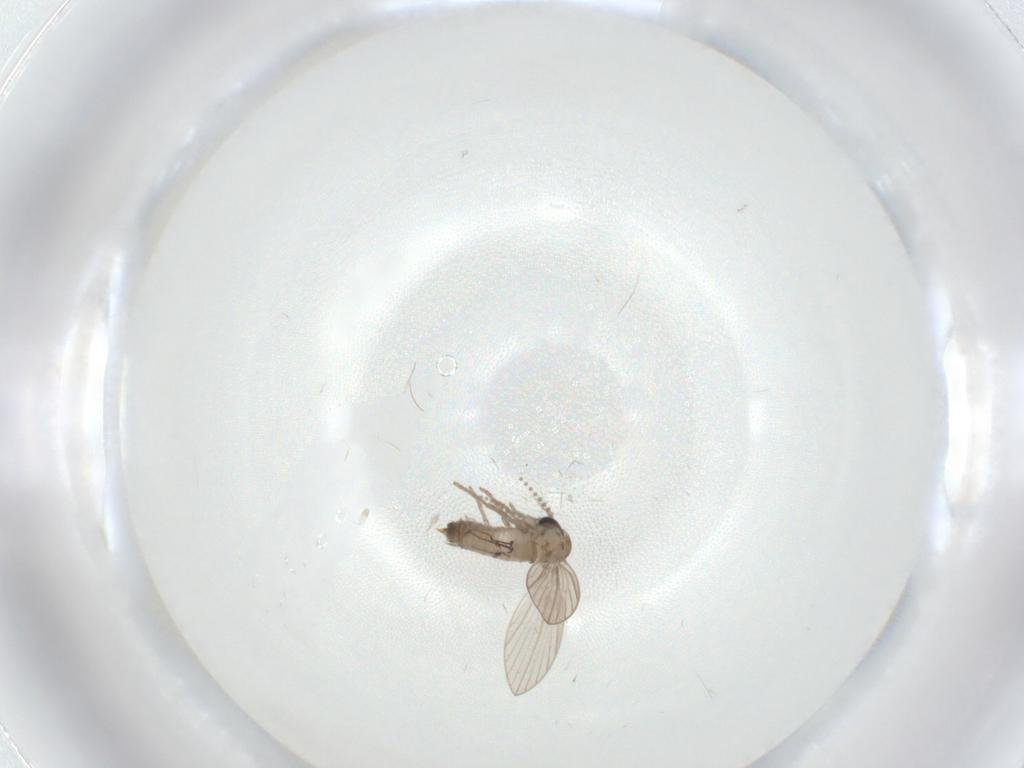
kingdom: Animalia
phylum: Arthropoda
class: Insecta
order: Diptera
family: Psychodidae
